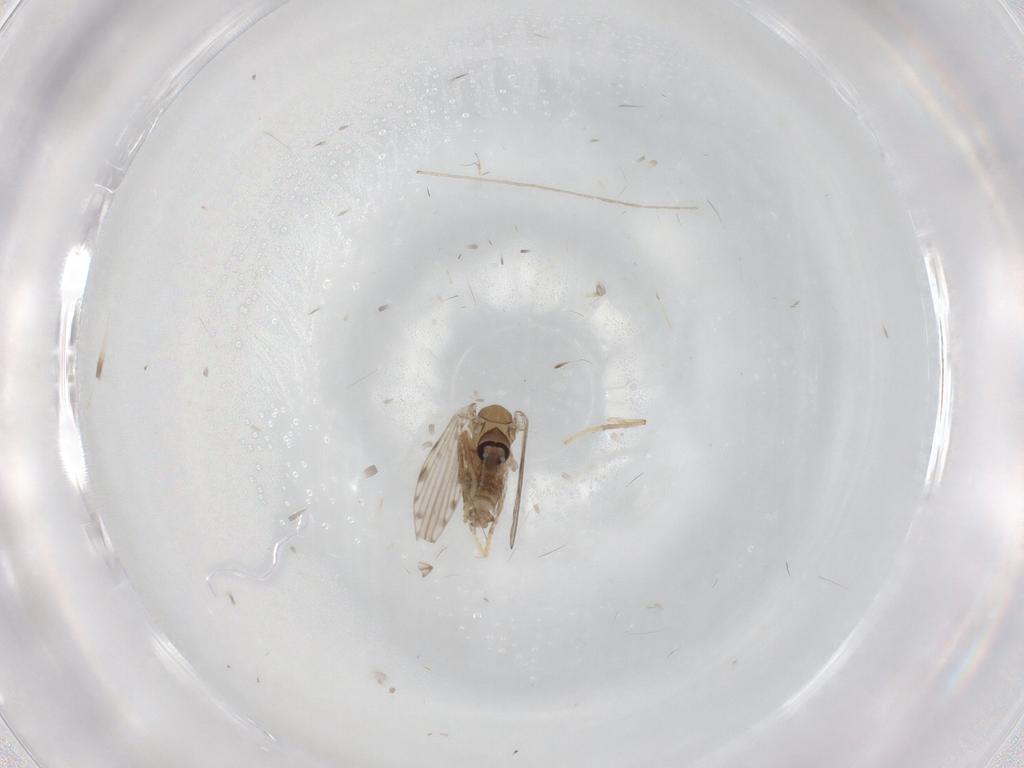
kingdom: Animalia
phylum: Arthropoda
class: Insecta
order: Diptera
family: Chironomidae
